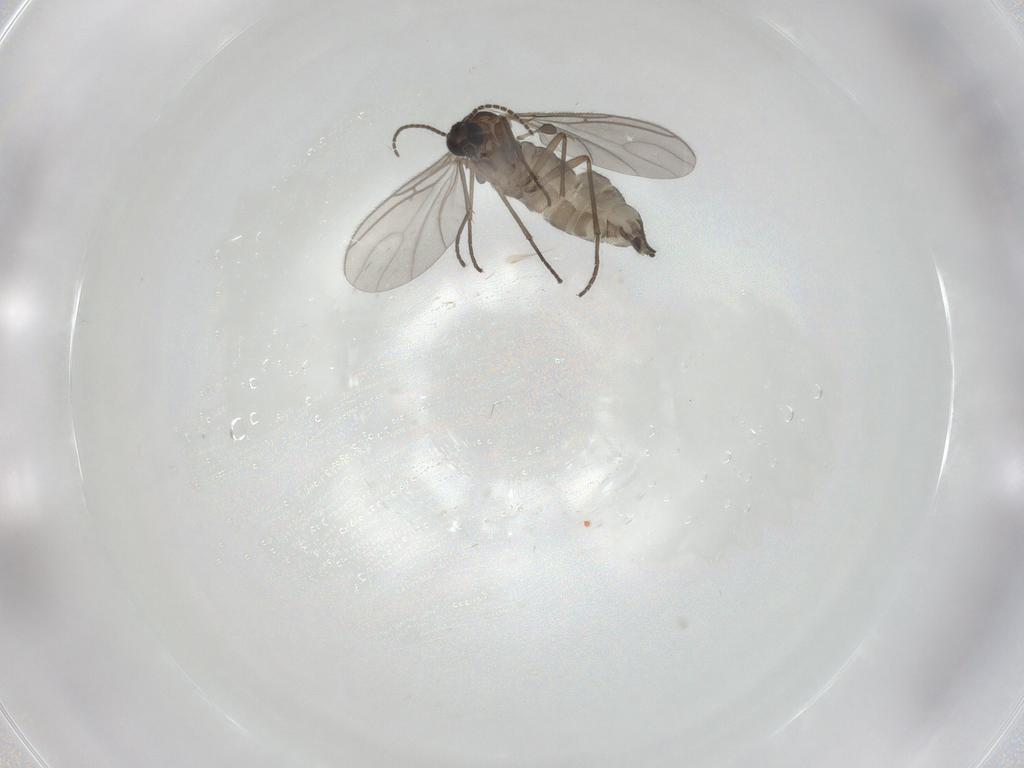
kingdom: Animalia
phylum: Arthropoda
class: Insecta
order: Diptera
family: Sciaridae
